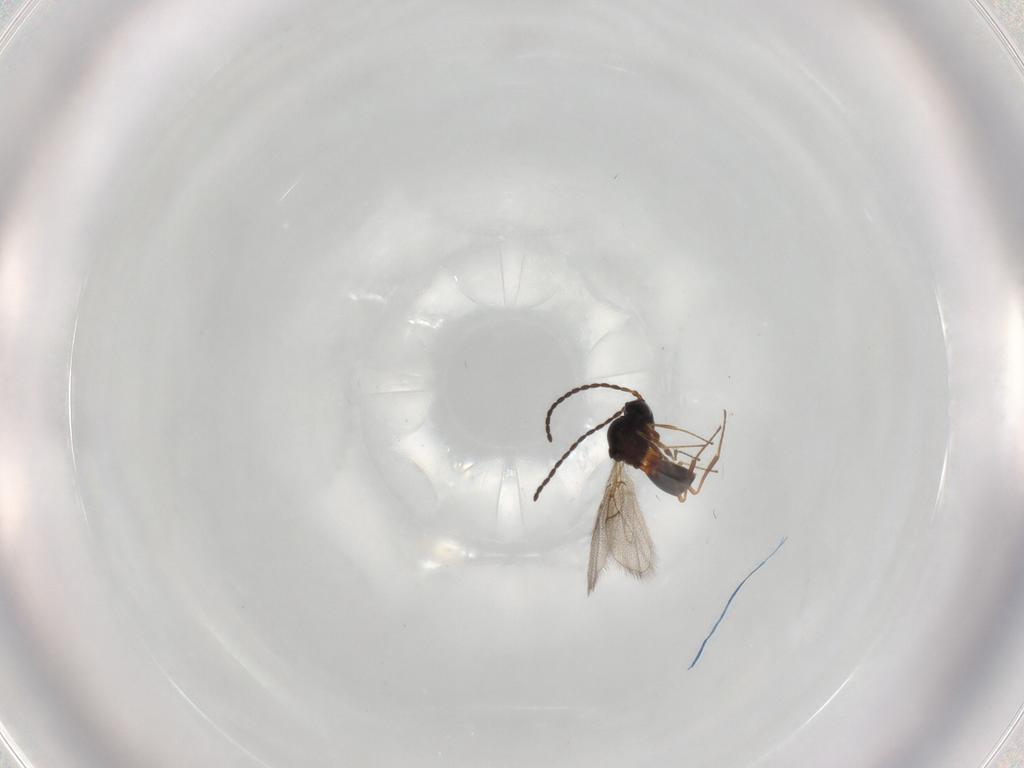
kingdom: Animalia
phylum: Arthropoda
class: Insecta
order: Hymenoptera
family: Figitidae
